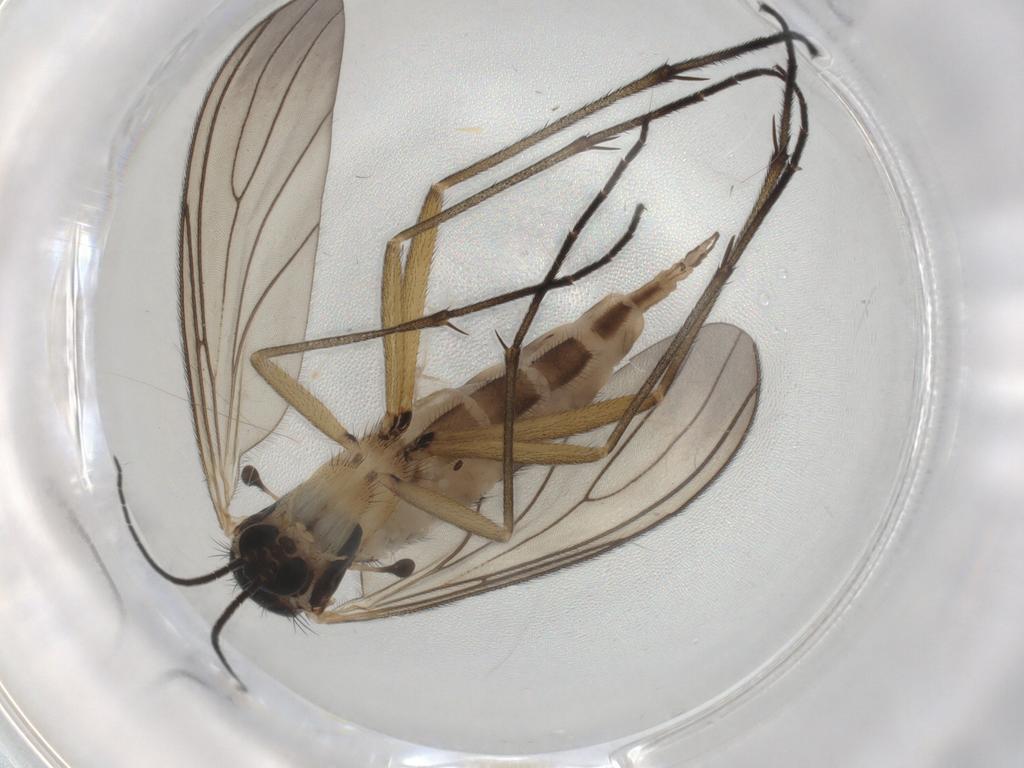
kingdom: Animalia
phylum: Arthropoda
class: Insecta
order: Diptera
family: Sciaridae
